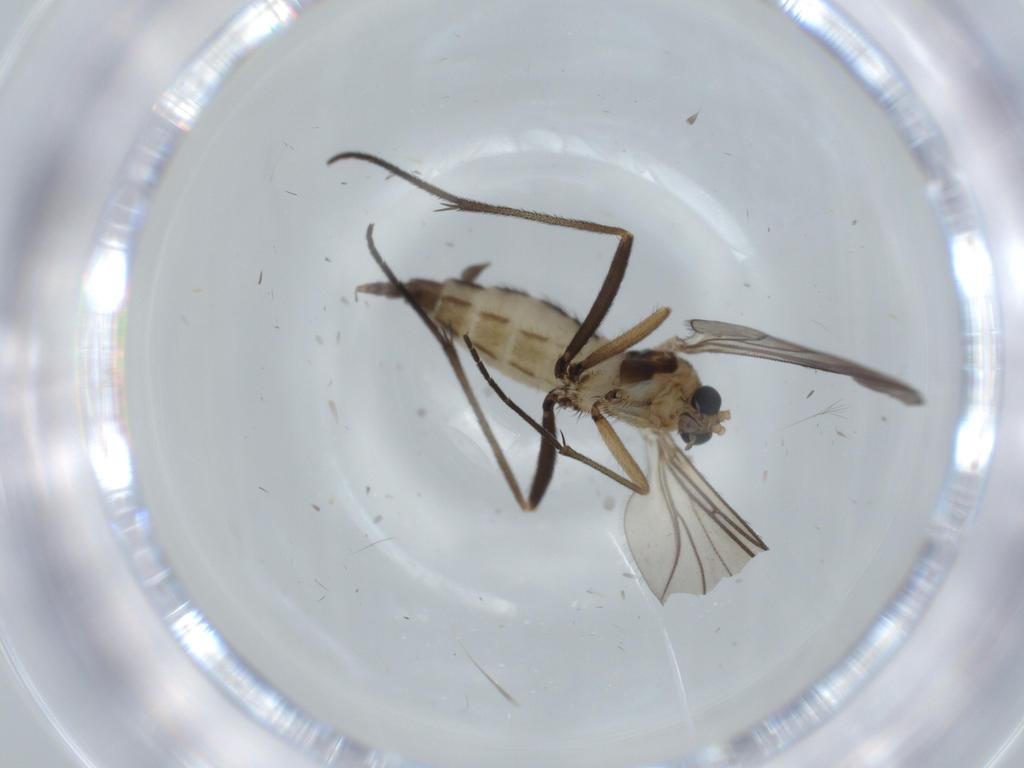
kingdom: Animalia
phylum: Arthropoda
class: Insecta
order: Diptera
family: Sciaridae
